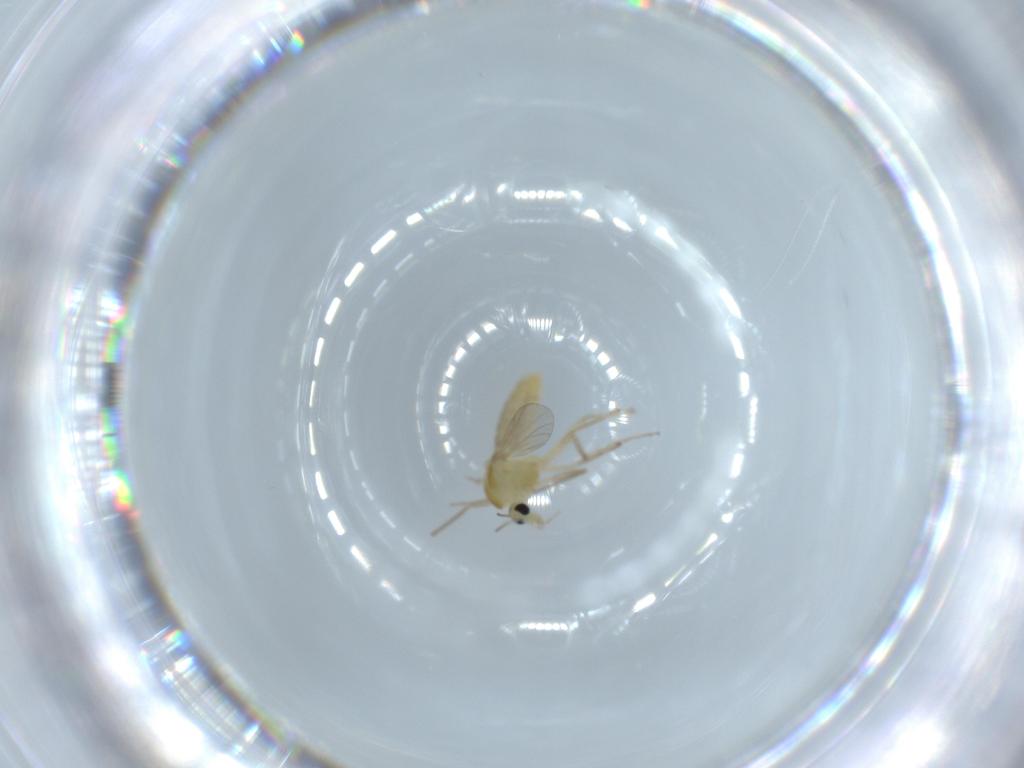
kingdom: Animalia
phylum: Arthropoda
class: Insecta
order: Diptera
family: Chironomidae
